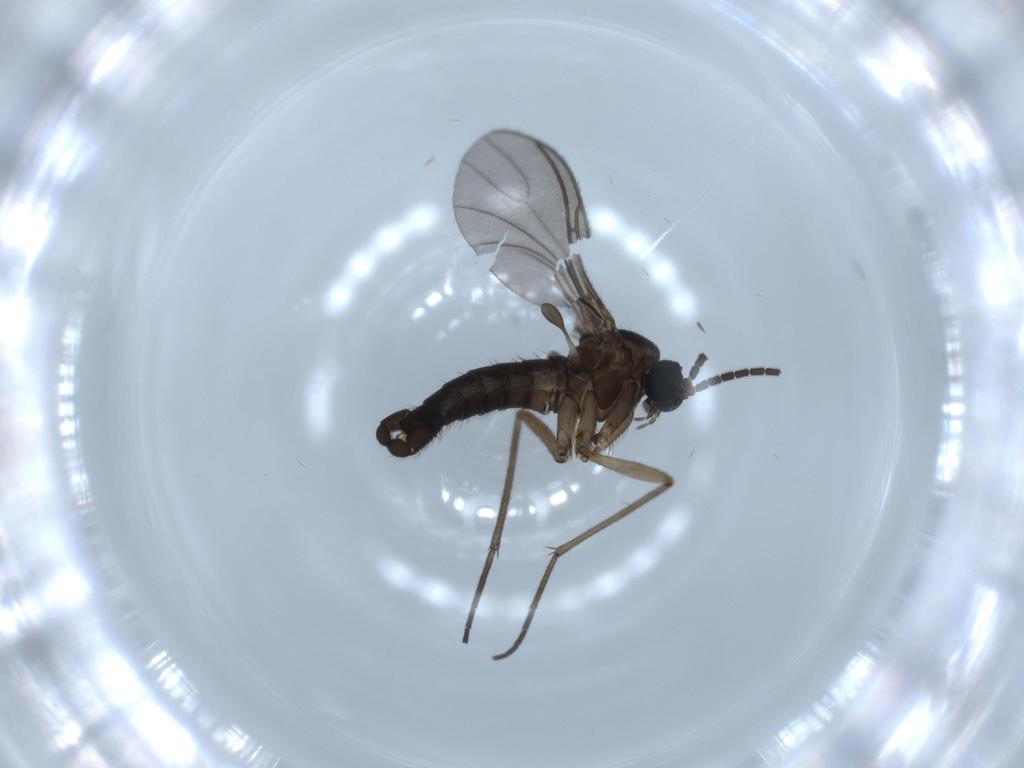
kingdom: Animalia
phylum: Arthropoda
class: Insecta
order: Diptera
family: Sciaridae
